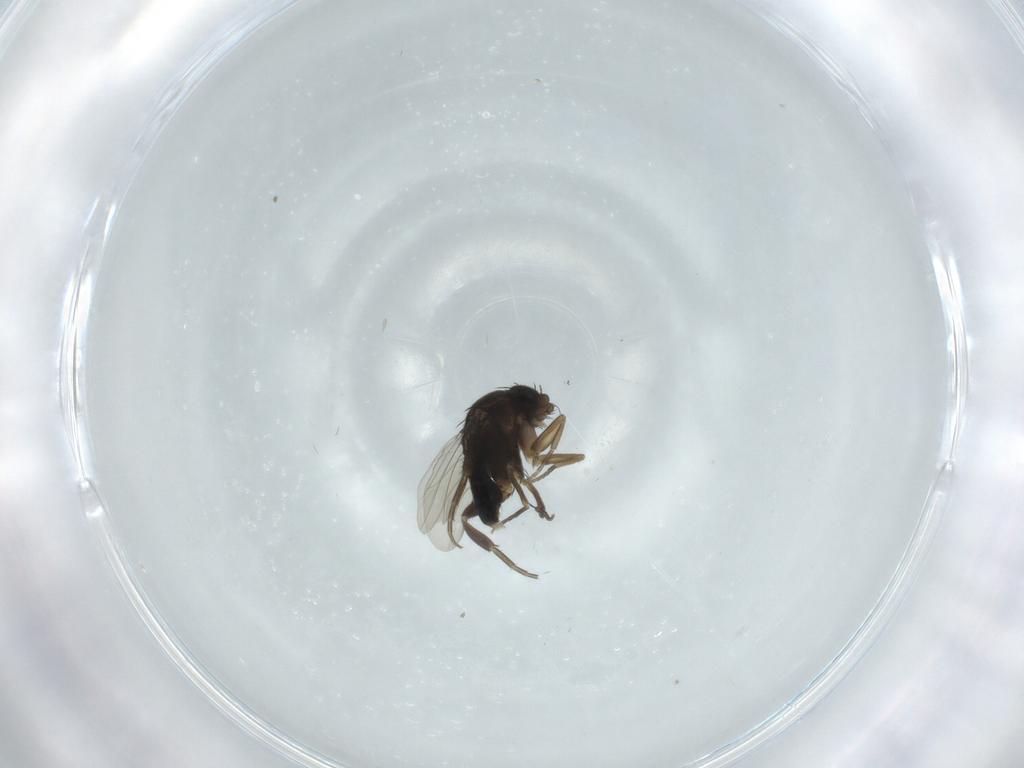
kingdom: Animalia
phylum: Arthropoda
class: Insecta
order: Diptera
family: Phoridae
